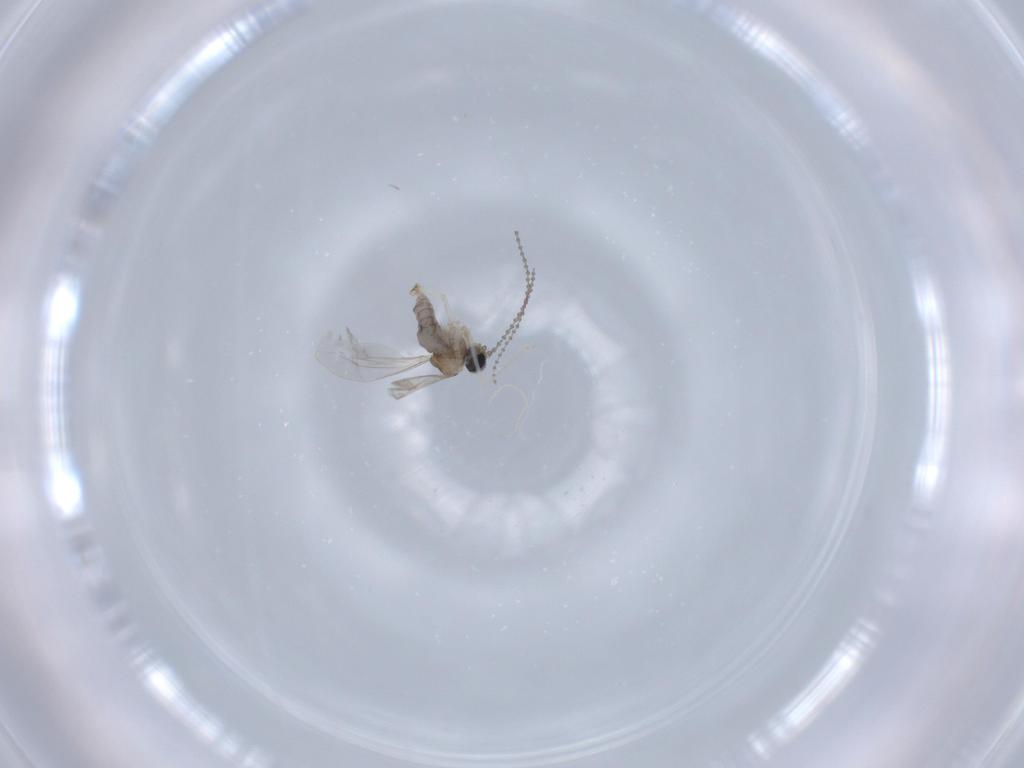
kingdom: Animalia
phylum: Arthropoda
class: Insecta
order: Diptera
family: Cecidomyiidae
